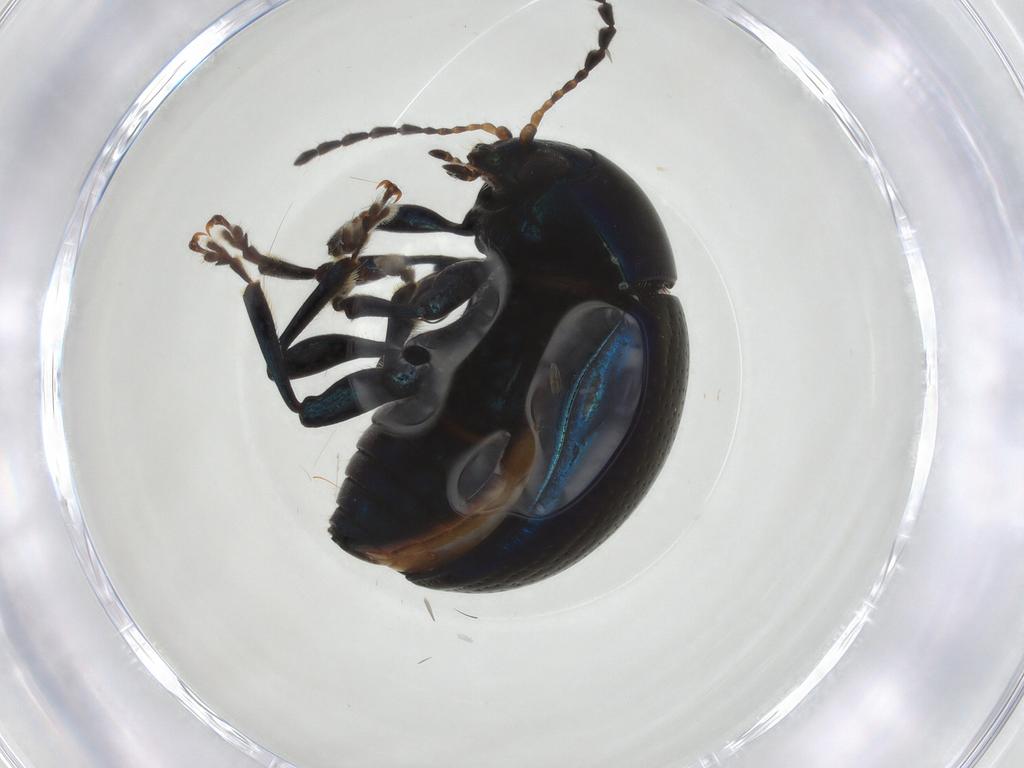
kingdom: Animalia
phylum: Arthropoda
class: Insecta
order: Coleoptera
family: Chrysomelidae
